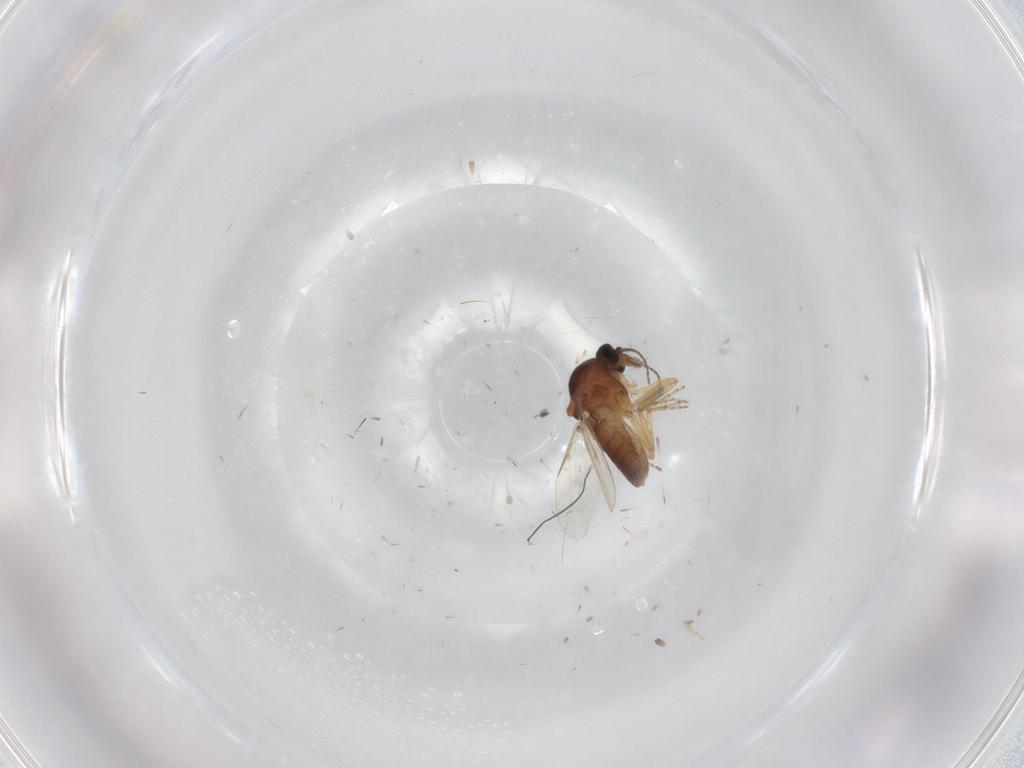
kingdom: Animalia
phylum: Arthropoda
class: Insecta
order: Diptera
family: Ceratopogonidae
